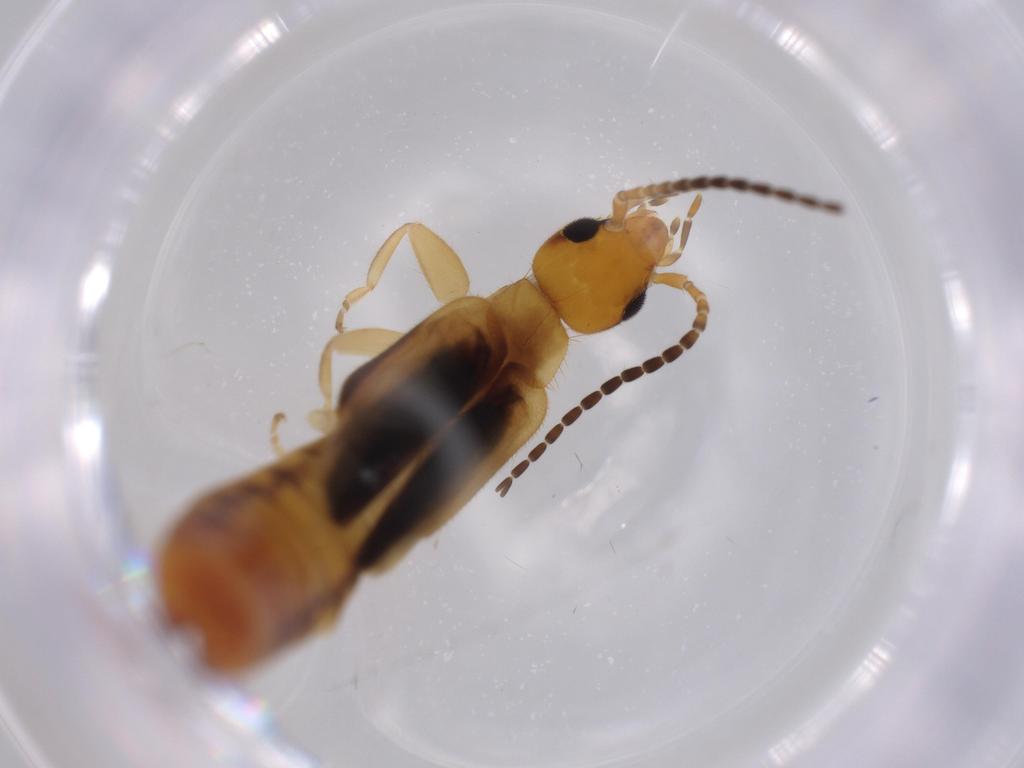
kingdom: Animalia
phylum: Arthropoda
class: Insecta
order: Dermaptera
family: Forficulidae
